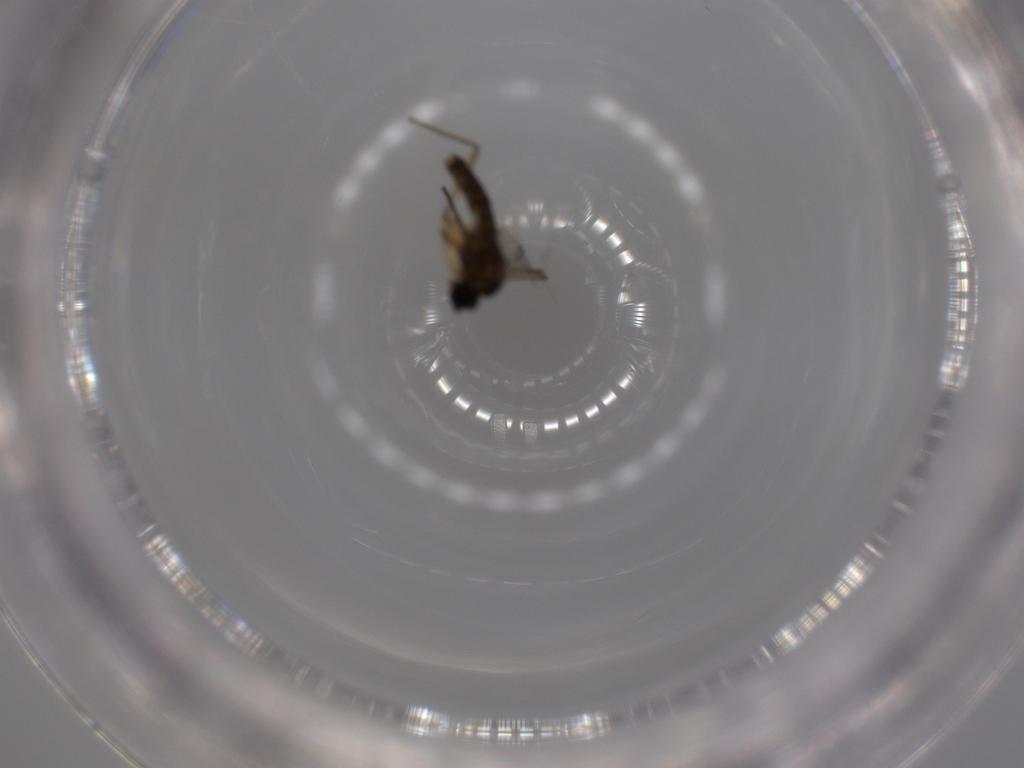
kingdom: Animalia
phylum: Arthropoda
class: Insecta
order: Diptera
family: Sciaridae
